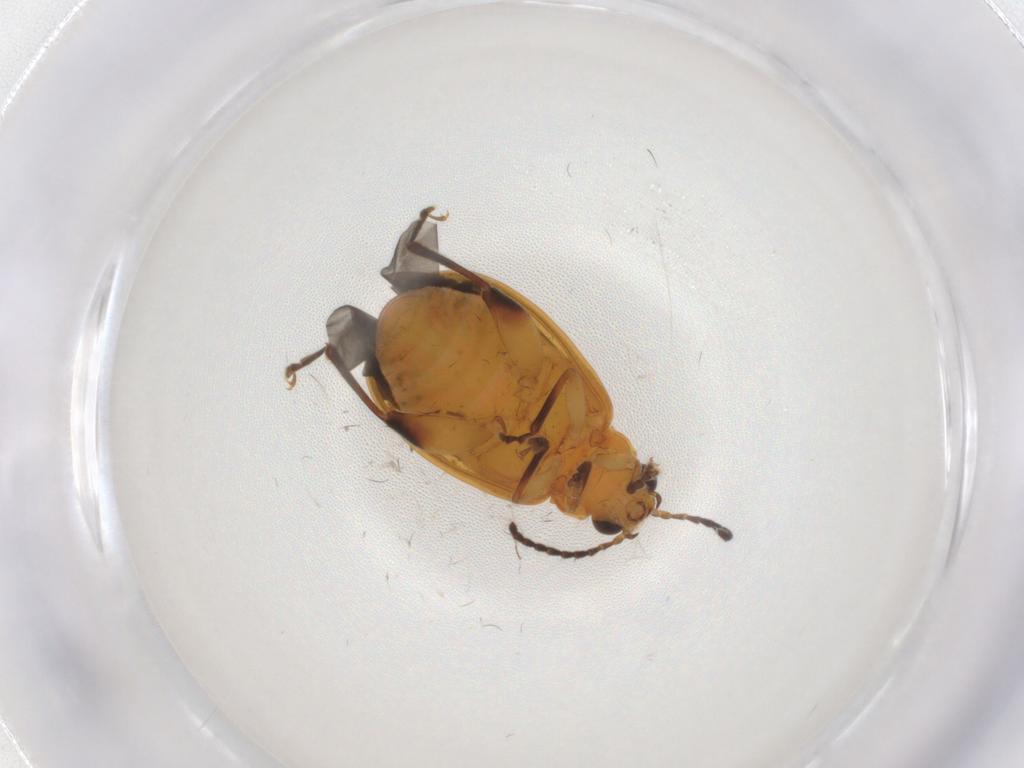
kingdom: Animalia
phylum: Arthropoda
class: Insecta
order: Coleoptera
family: Chrysomelidae
